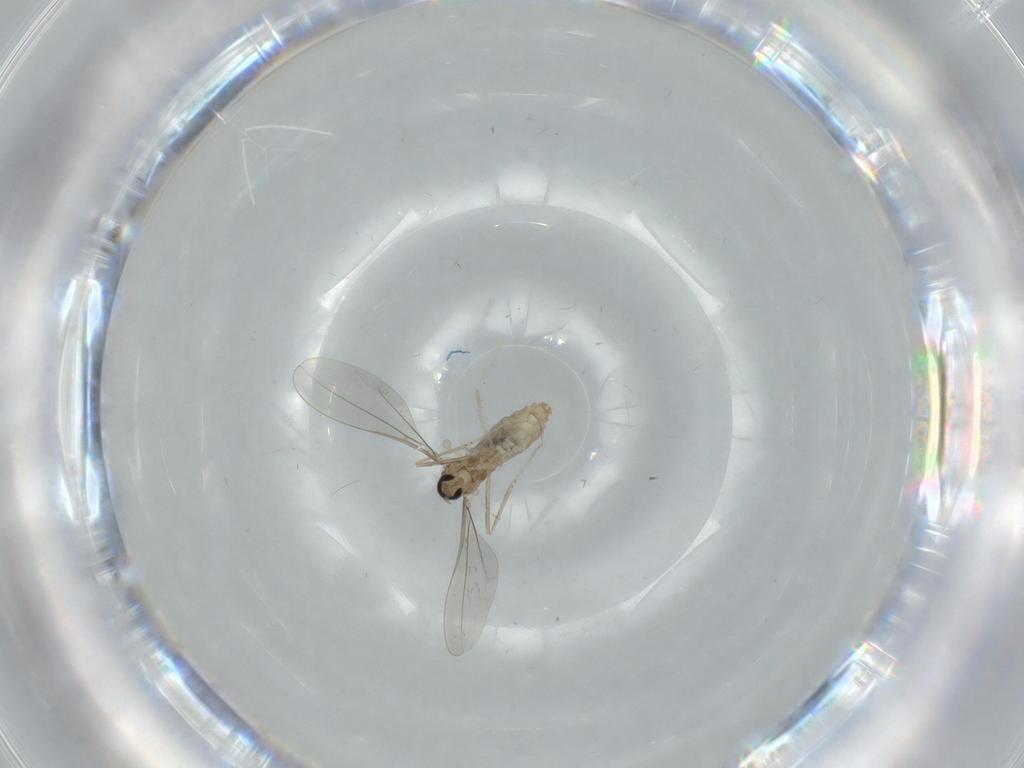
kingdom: Animalia
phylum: Arthropoda
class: Insecta
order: Diptera
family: Cecidomyiidae
